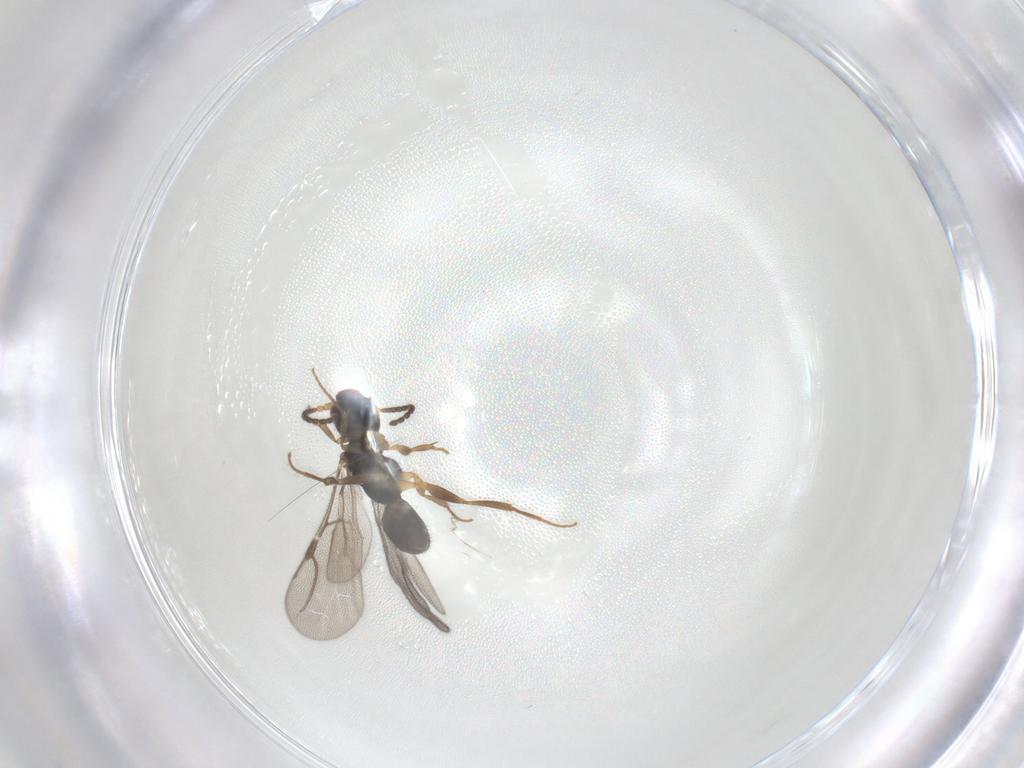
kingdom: Animalia
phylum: Arthropoda
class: Insecta
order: Hymenoptera
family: Bethylidae
